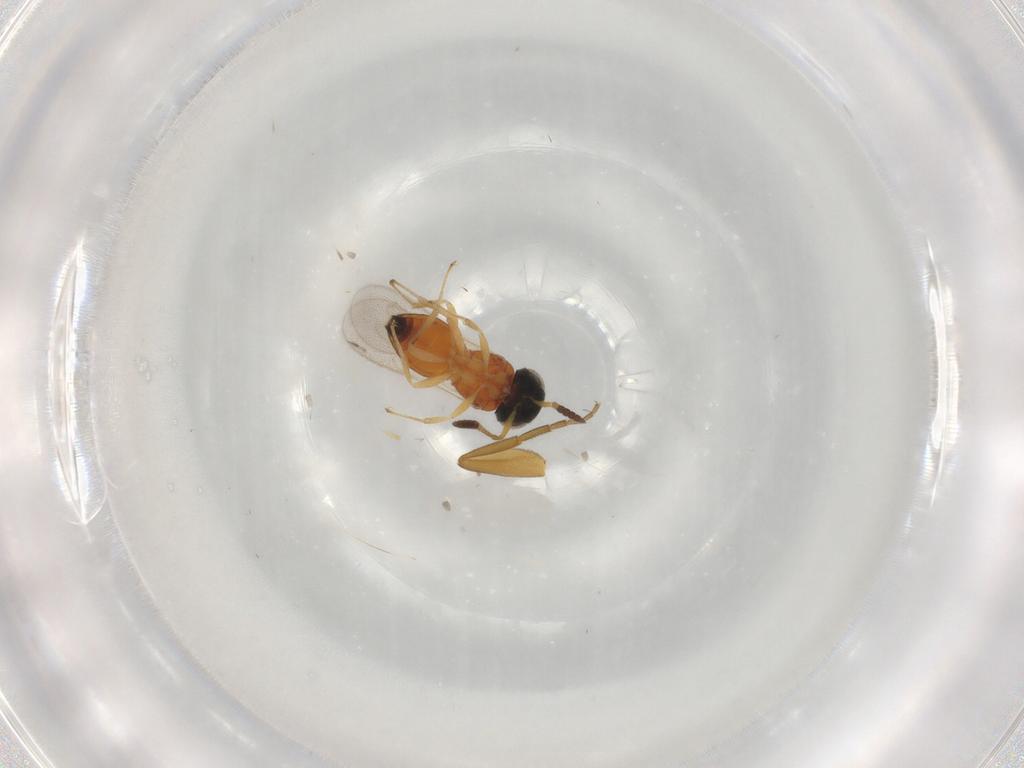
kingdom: Animalia
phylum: Arthropoda
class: Insecta
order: Hymenoptera
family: Scelionidae
